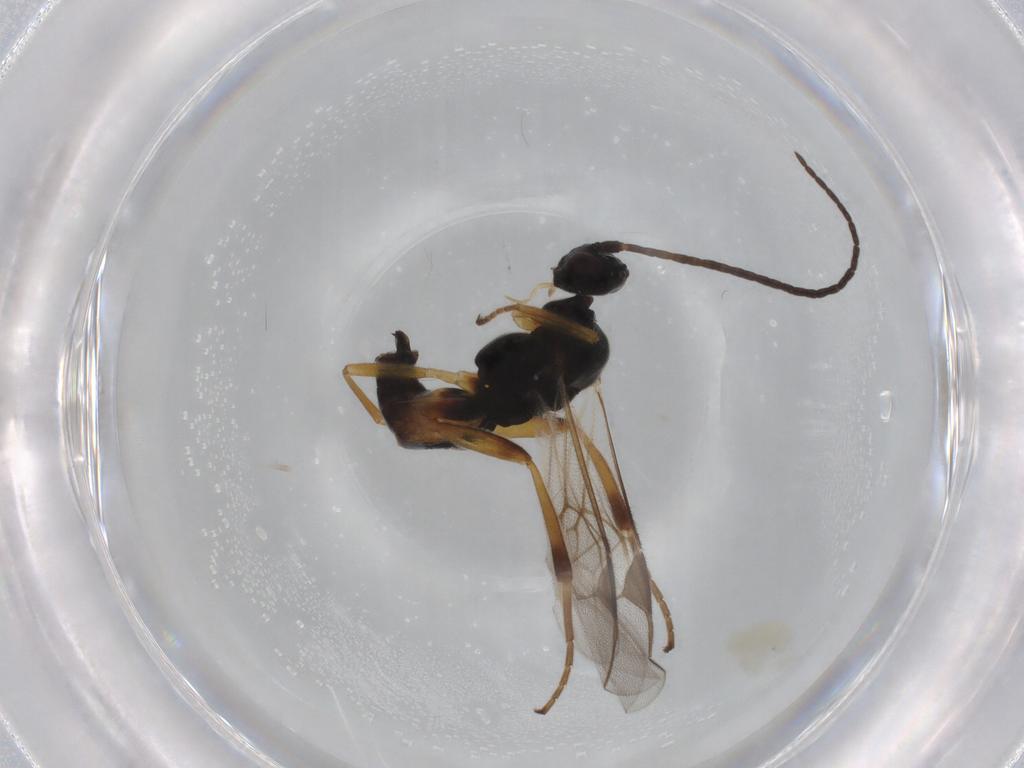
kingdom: Animalia
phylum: Arthropoda
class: Insecta
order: Hymenoptera
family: Braconidae
